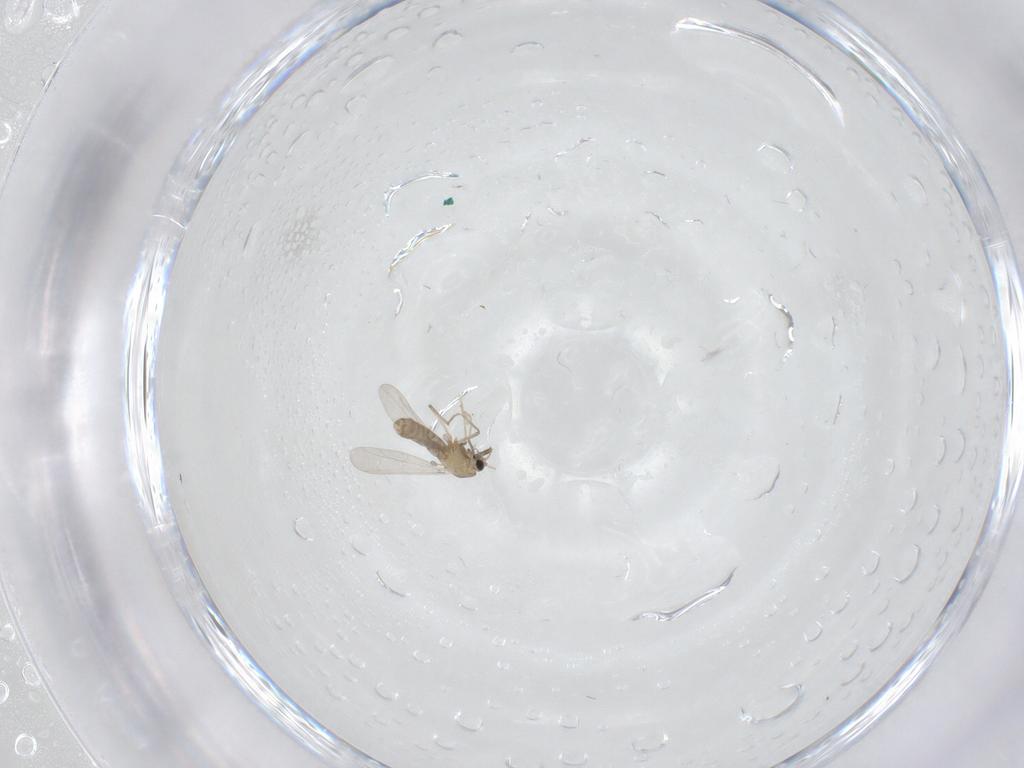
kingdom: Animalia
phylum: Arthropoda
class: Insecta
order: Diptera
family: Chironomidae
